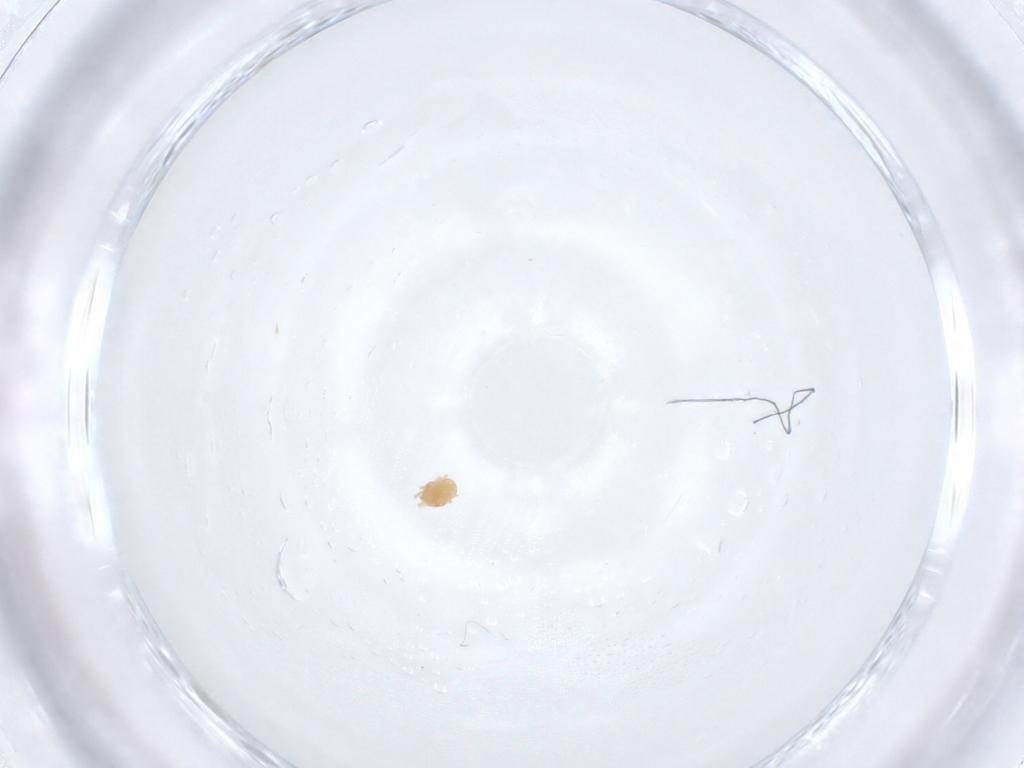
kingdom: Animalia
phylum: Arthropoda
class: Arachnida
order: Trombidiformes
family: Tetranychidae
